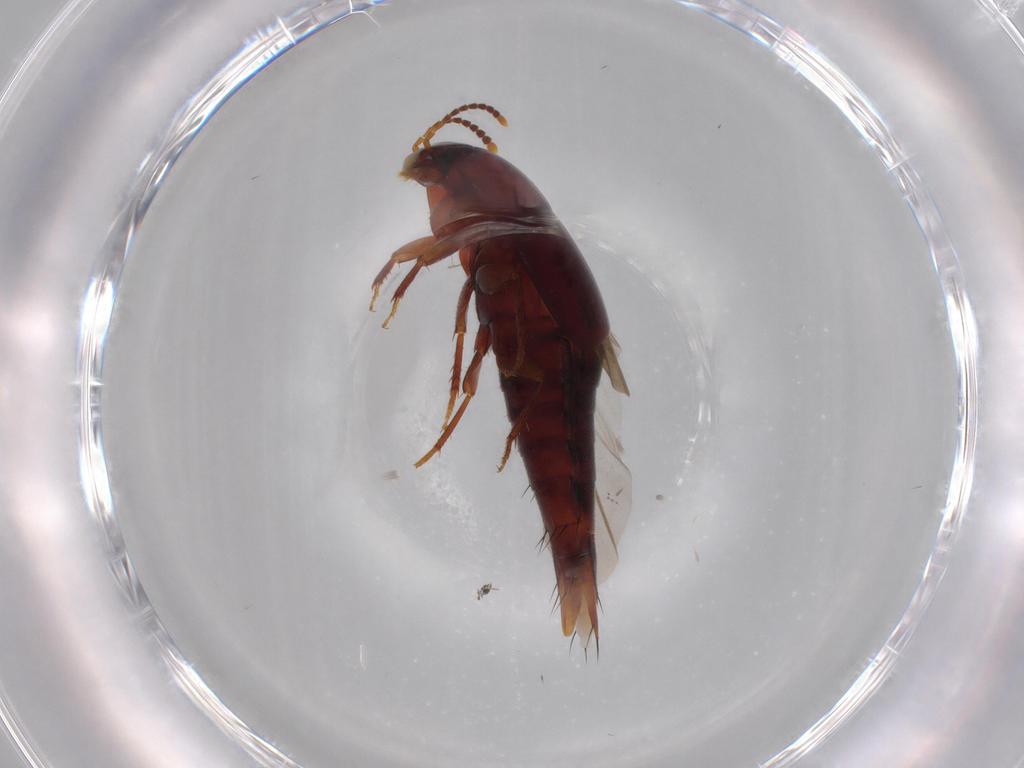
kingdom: Animalia
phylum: Arthropoda
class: Insecta
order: Coleoptera
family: Staphylinidae
